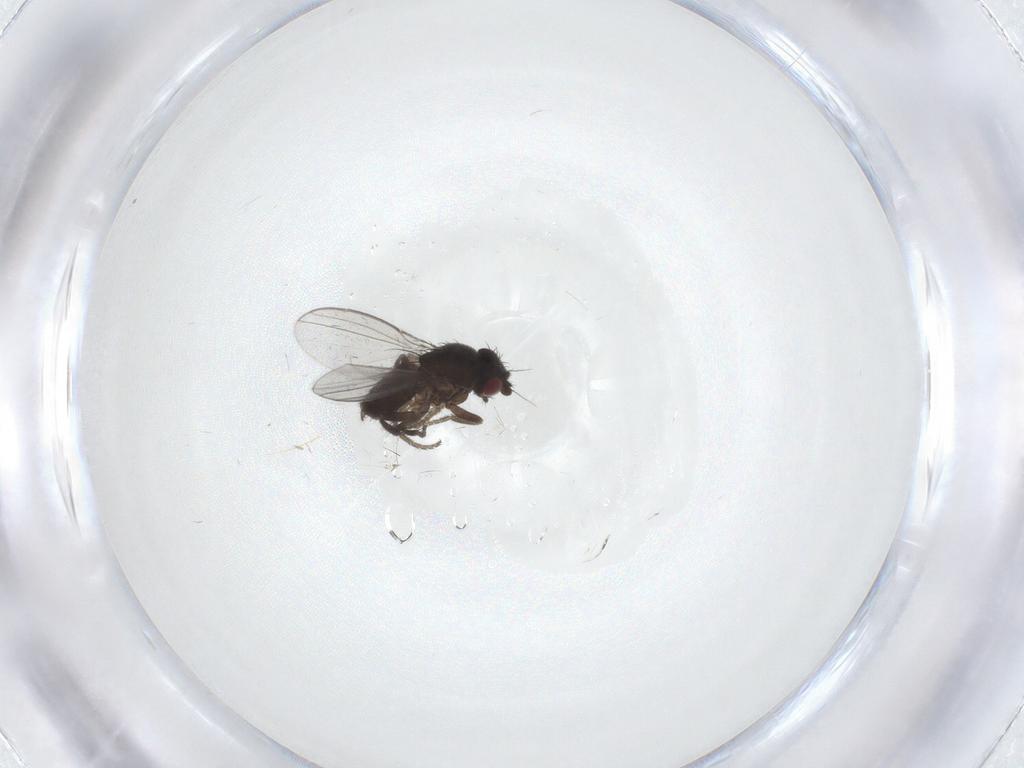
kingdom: Animalia
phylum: Arthropoda
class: Insecta
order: Diptera
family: Milichiidae
